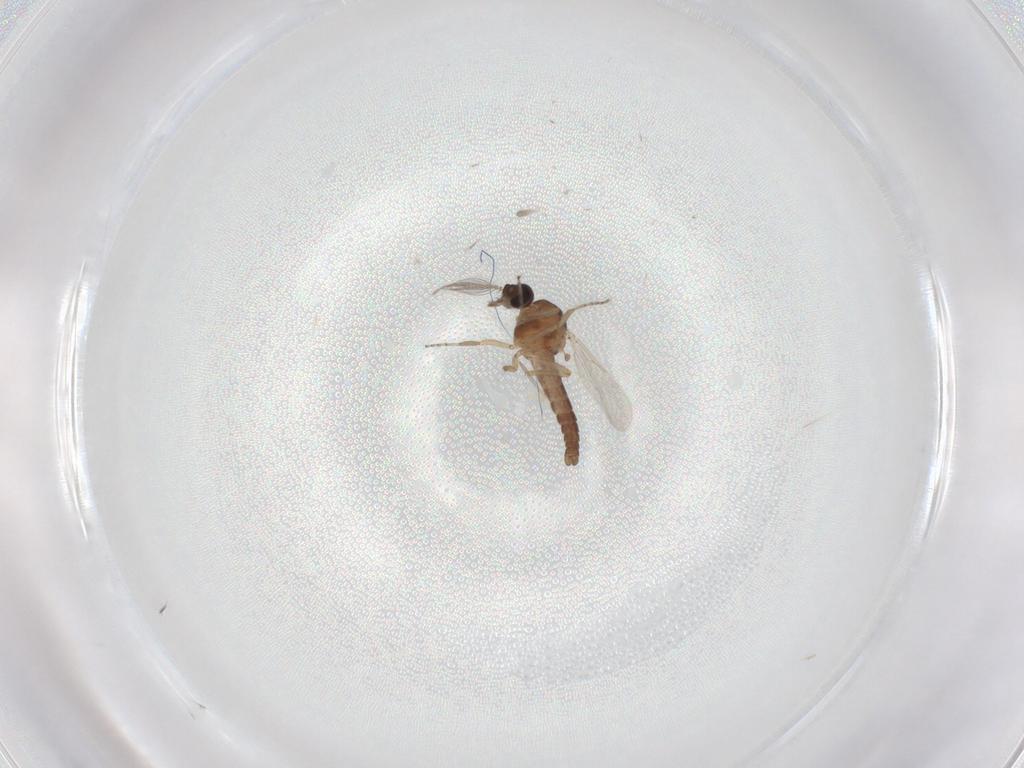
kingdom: Animalia
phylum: Arthropoda
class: Insecta
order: Diptera
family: Ceratopogonidae
